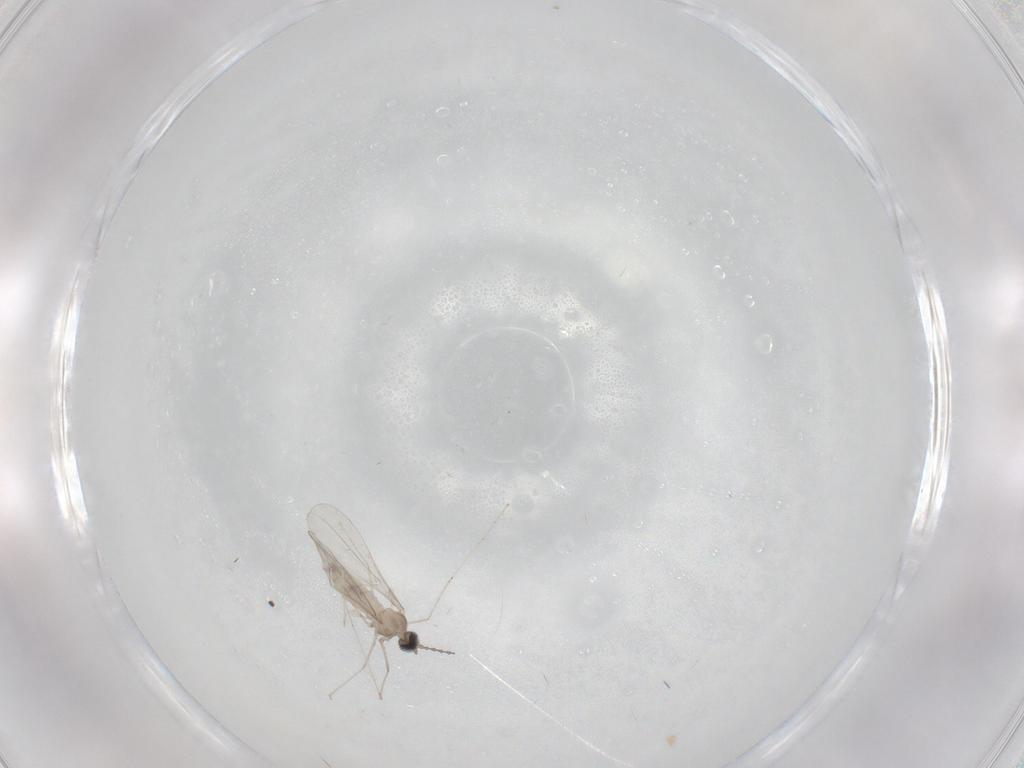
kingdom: Animalia
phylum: Arthropoda
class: Insecta
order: Diptera
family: Cecidomyiidae
